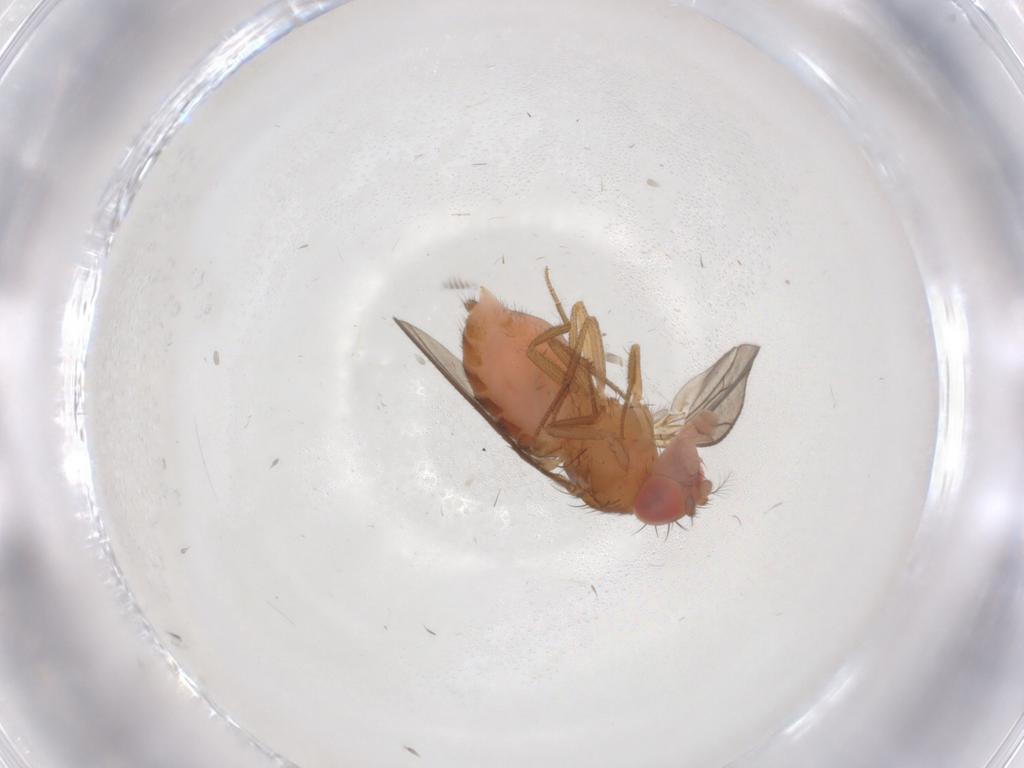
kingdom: Animalia
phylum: Arthropoda
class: Insecta
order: Diptera
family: Drosophilidae
